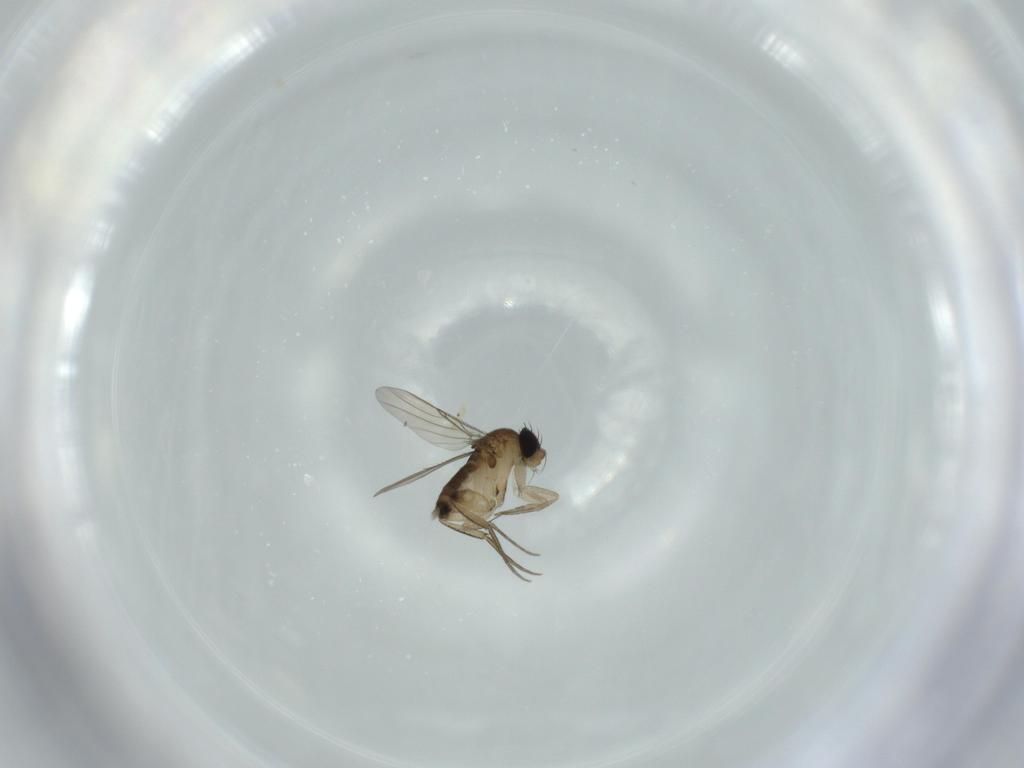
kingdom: Animalia
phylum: Arthropoda
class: Insecta
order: Diptera
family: Phoridae
